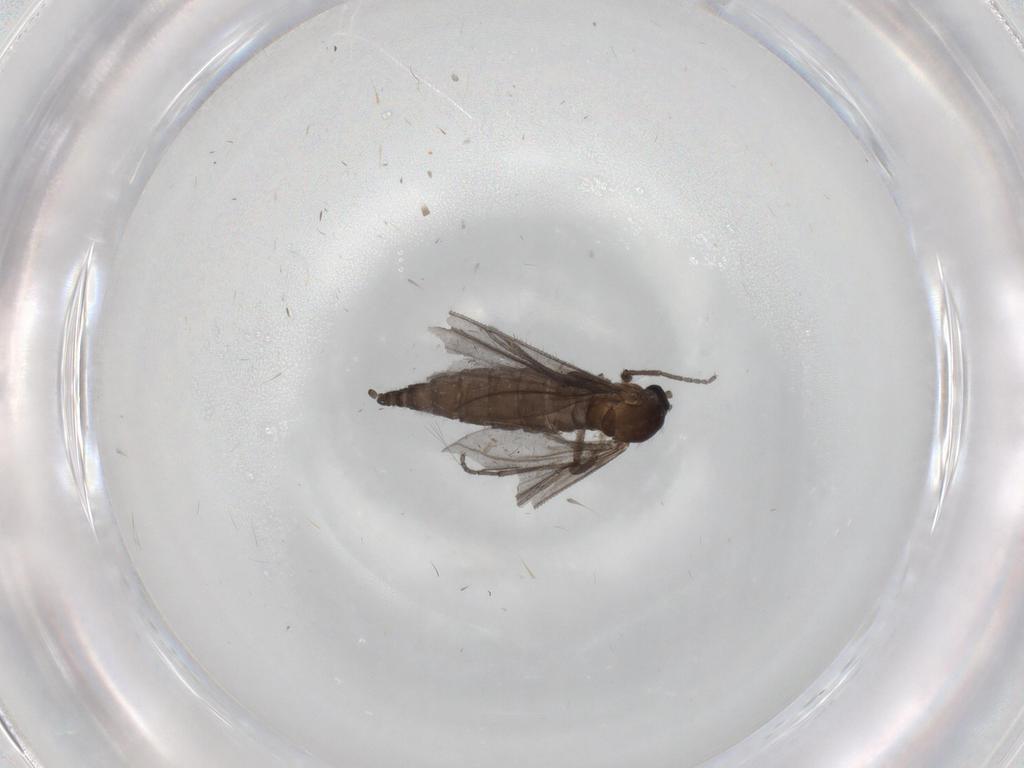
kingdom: Animalia
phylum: Arthropoda
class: Insecta
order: Diptera
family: Sciaridae
